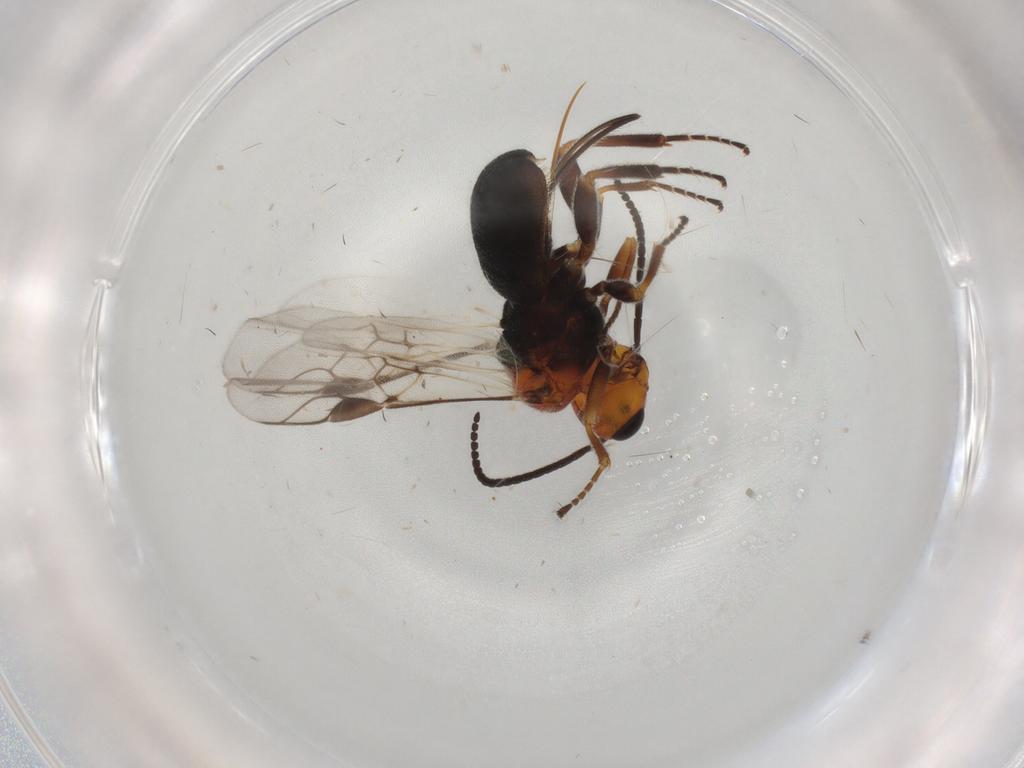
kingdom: Animalia
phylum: Arthropoda
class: Insecta
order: Hymenoptera
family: Braconidae
